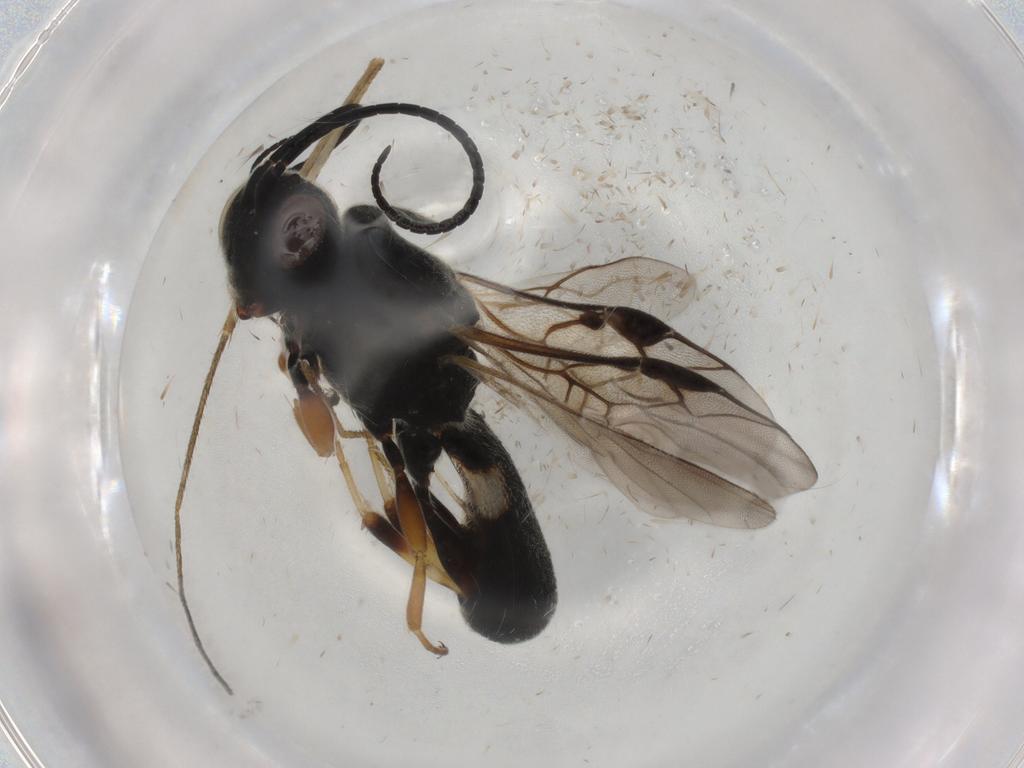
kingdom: Animalia
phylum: Arthropoda
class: Insecta
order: Hymenoptera
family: Braconidae
